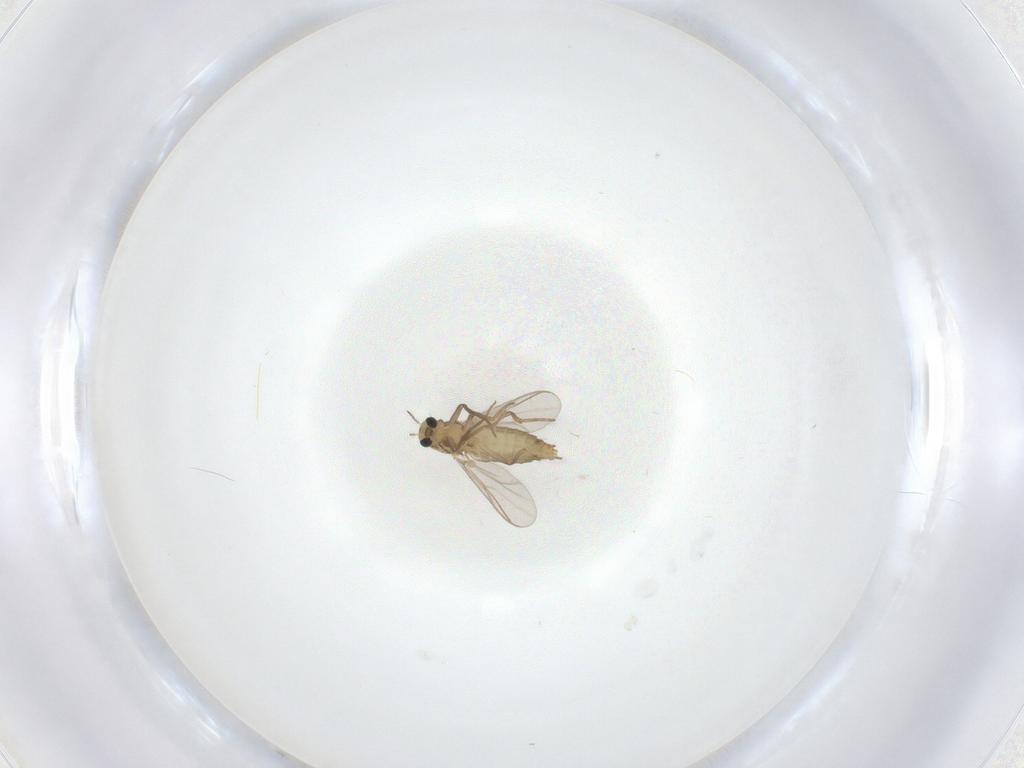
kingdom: Animalia
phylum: Arthropoda
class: Insecta
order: Diptera
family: Chironomidae
